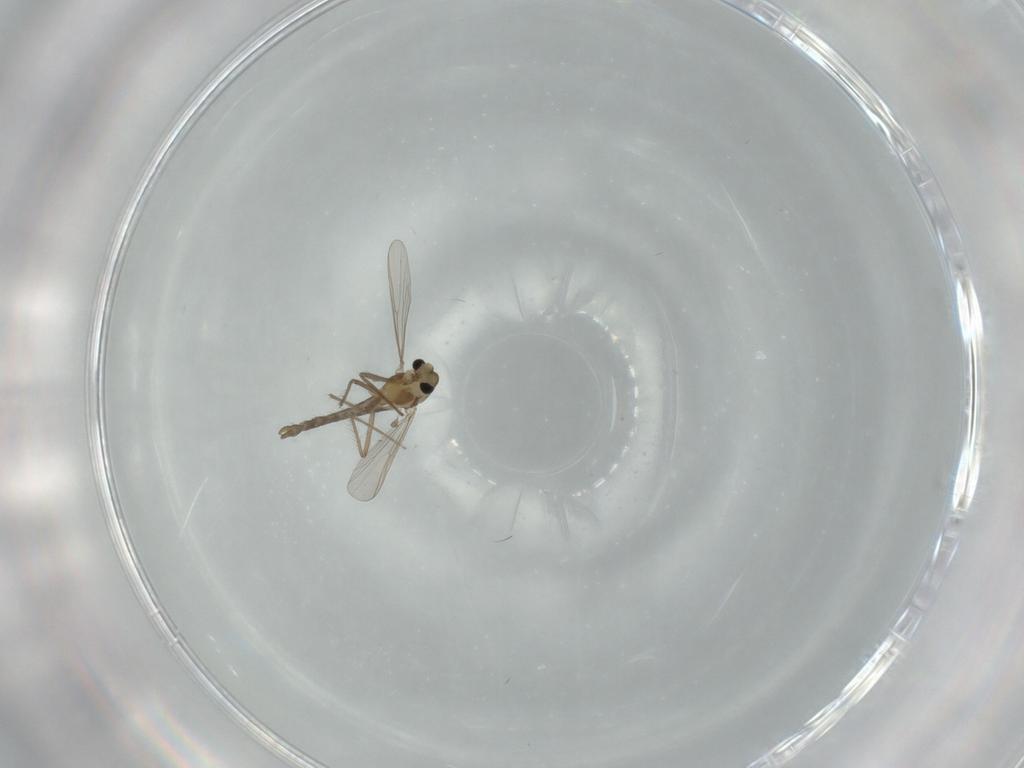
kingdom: Animalia
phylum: Arthropoda
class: Insecta
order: Diptera
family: Chironomidae
